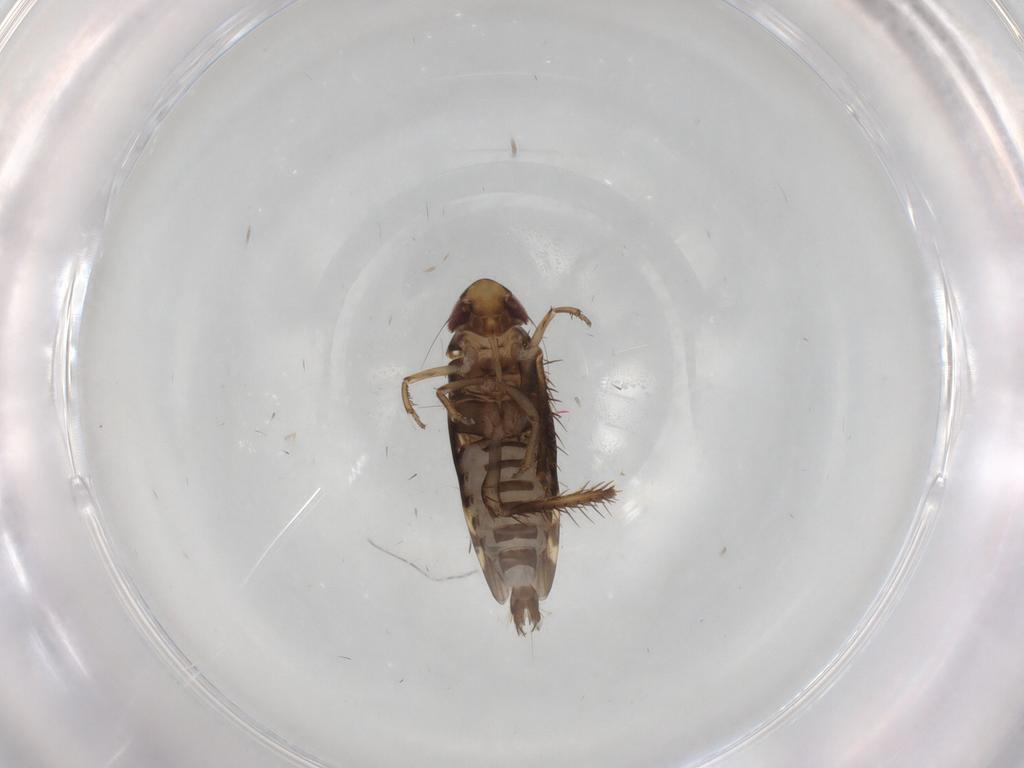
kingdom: Animalia
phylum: Arthropoda
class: Insecta
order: Hemiptera
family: Cicadellidae
